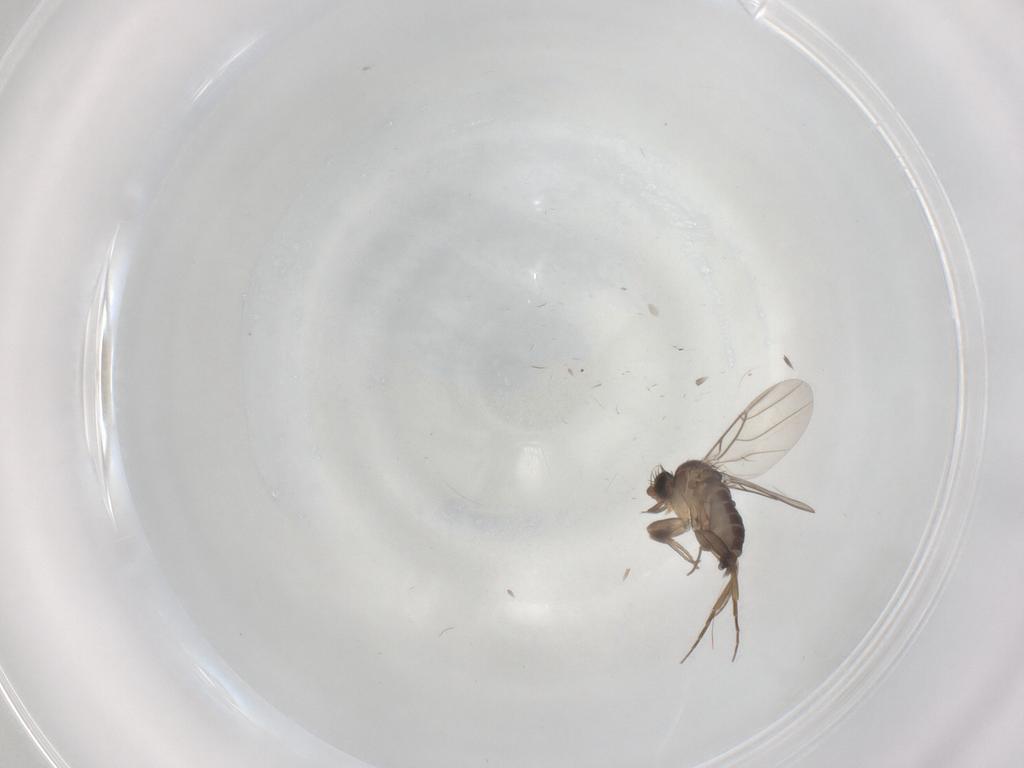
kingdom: Animalia
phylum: Arthropoda
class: Insecta
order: Diptera
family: Phoridae
